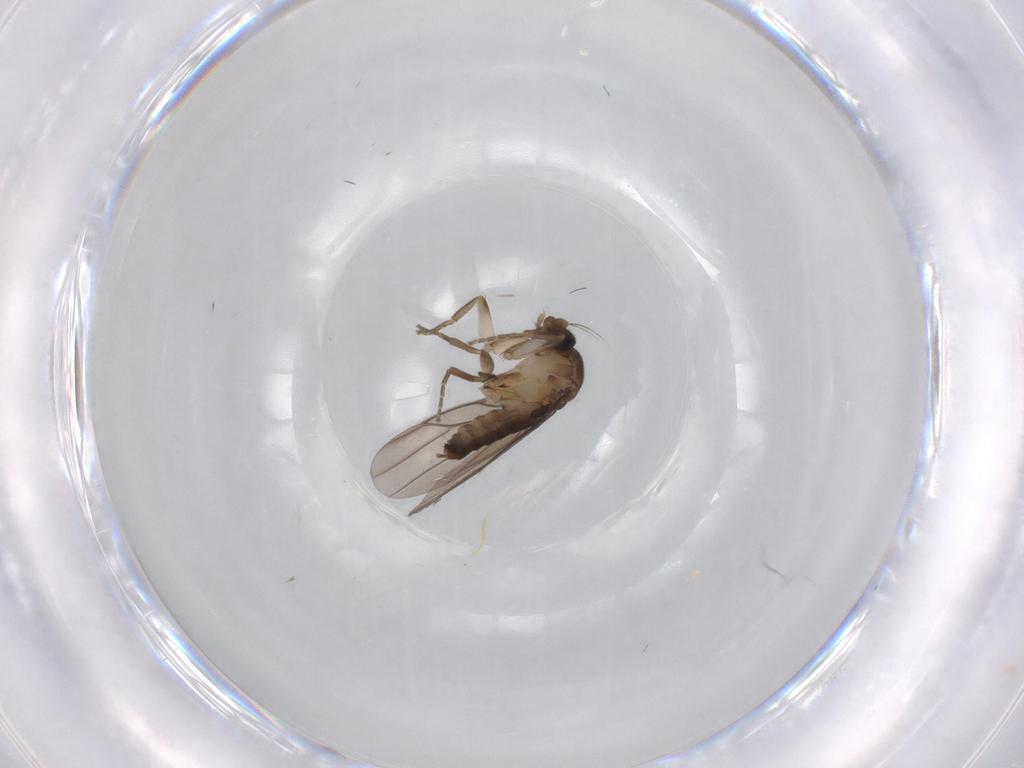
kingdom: Animalia
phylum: Arthropoda
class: Insecta
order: Diptera
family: Cecidomyiidae
